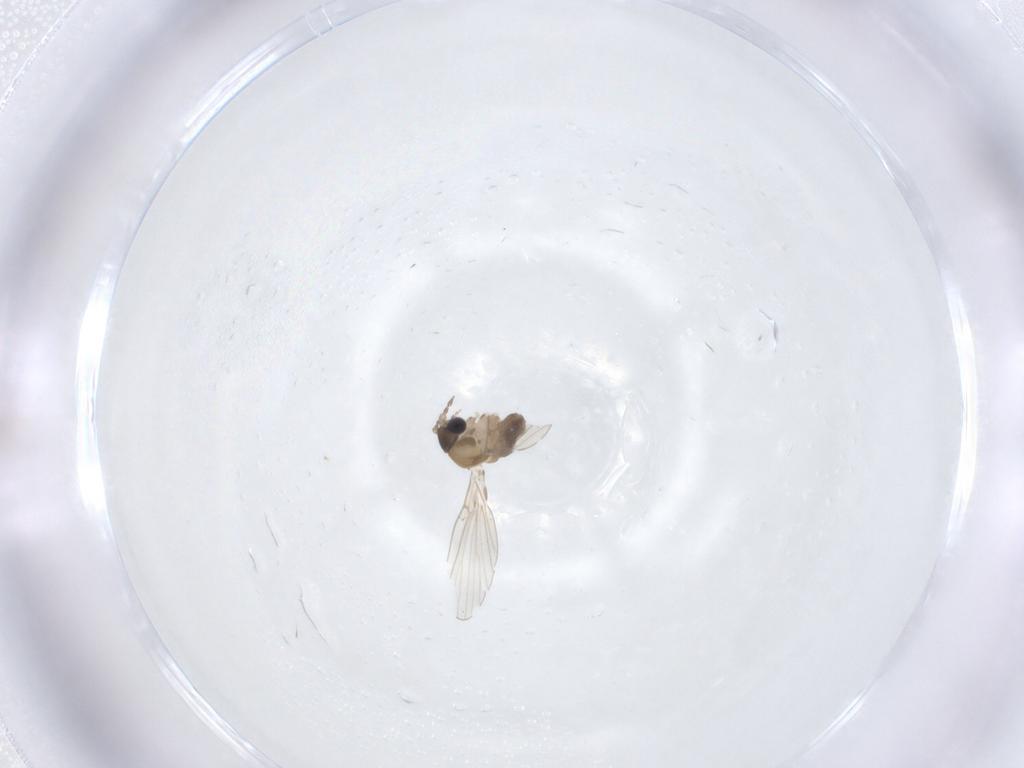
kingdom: Animalia
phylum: Arthropoda
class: Insecta
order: Diptera
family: Psychodidae
